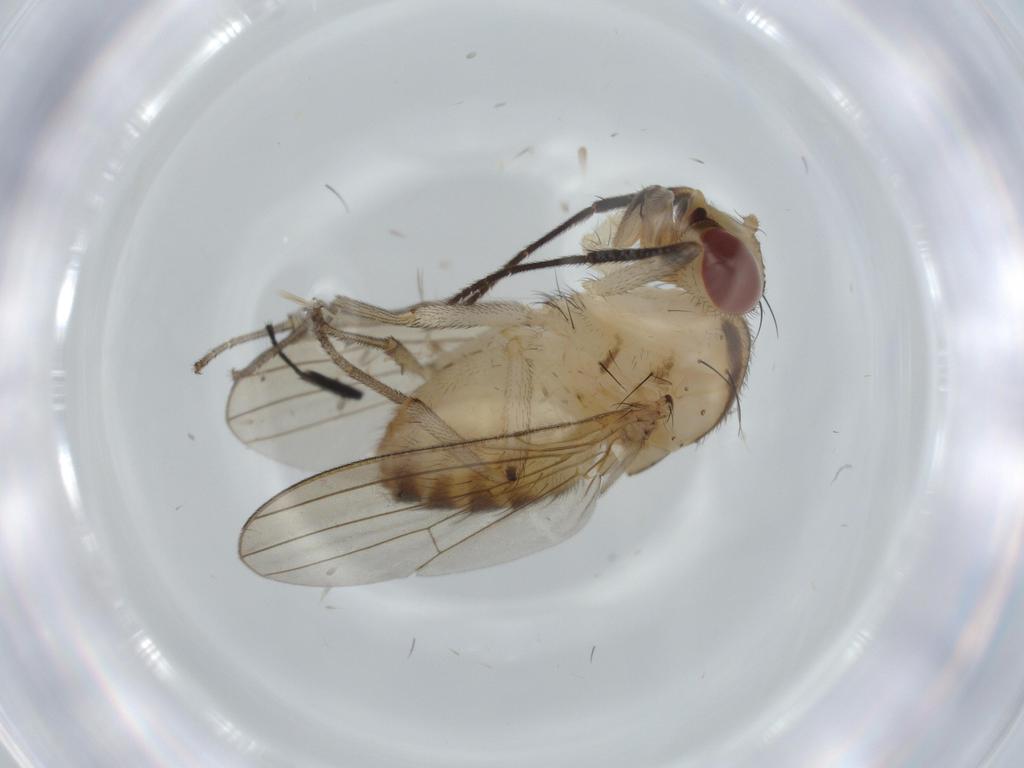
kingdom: Animalia
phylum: Arthropoda
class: Insecta
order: Diptera
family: Milichiidae
